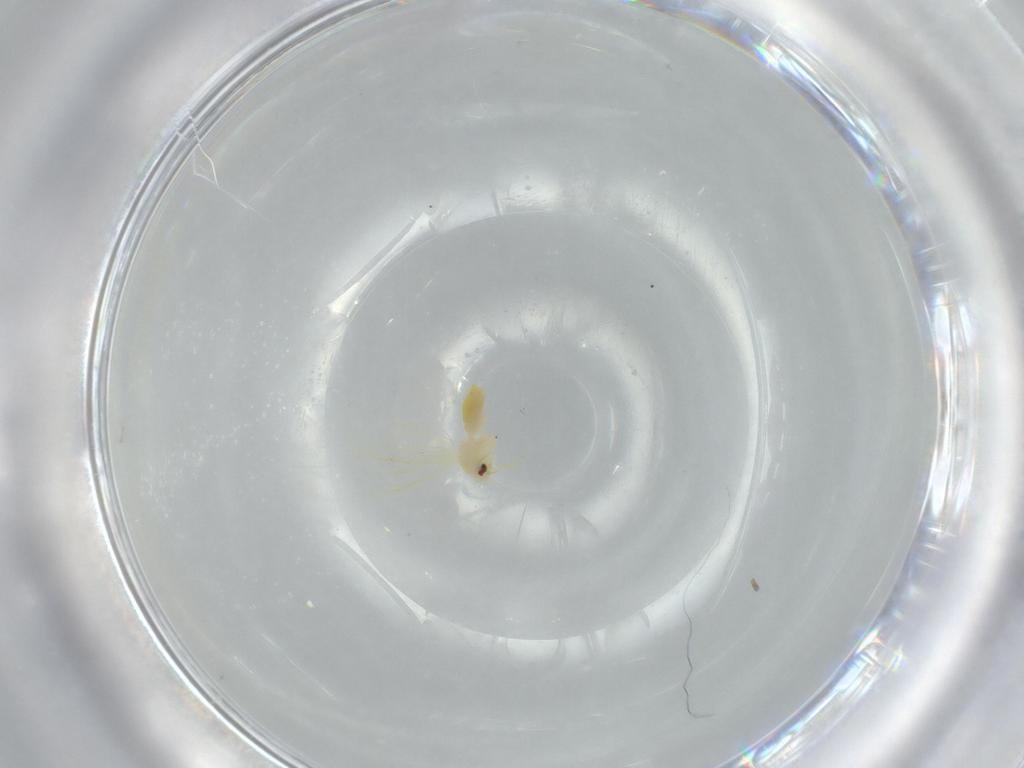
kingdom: Animalia
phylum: Arthropoda
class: Insecta
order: Hemiptera
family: Aleyrodidae
